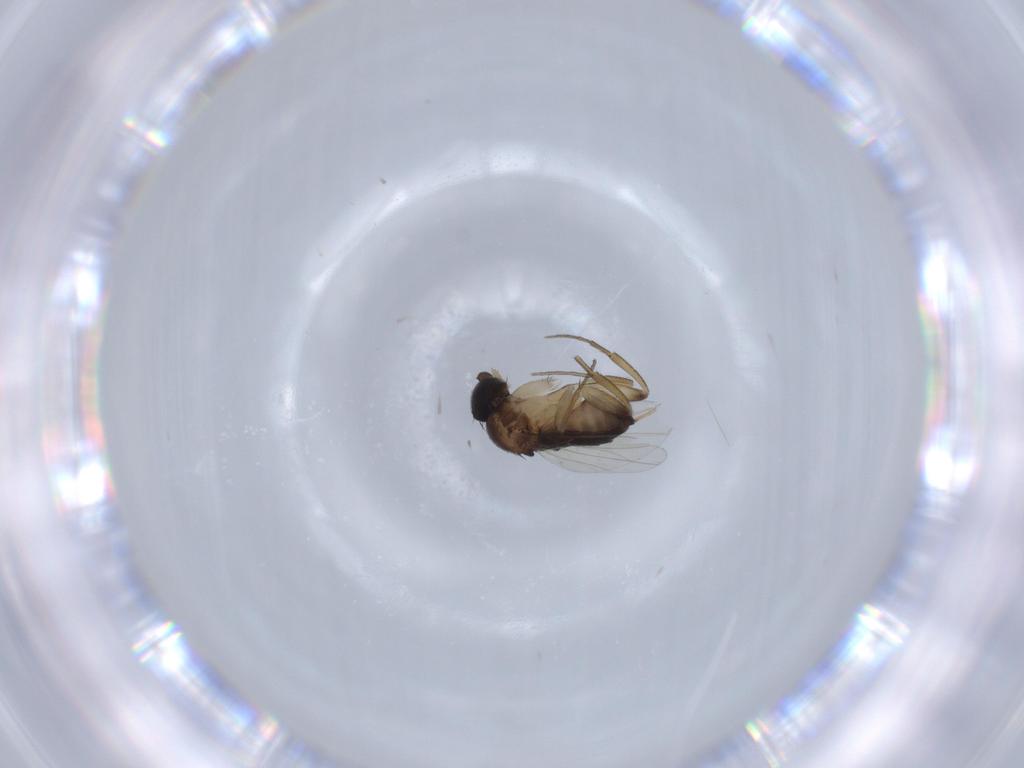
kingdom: Animalia
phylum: Arthropoda
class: Insecta
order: Diptera
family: Phoridae
